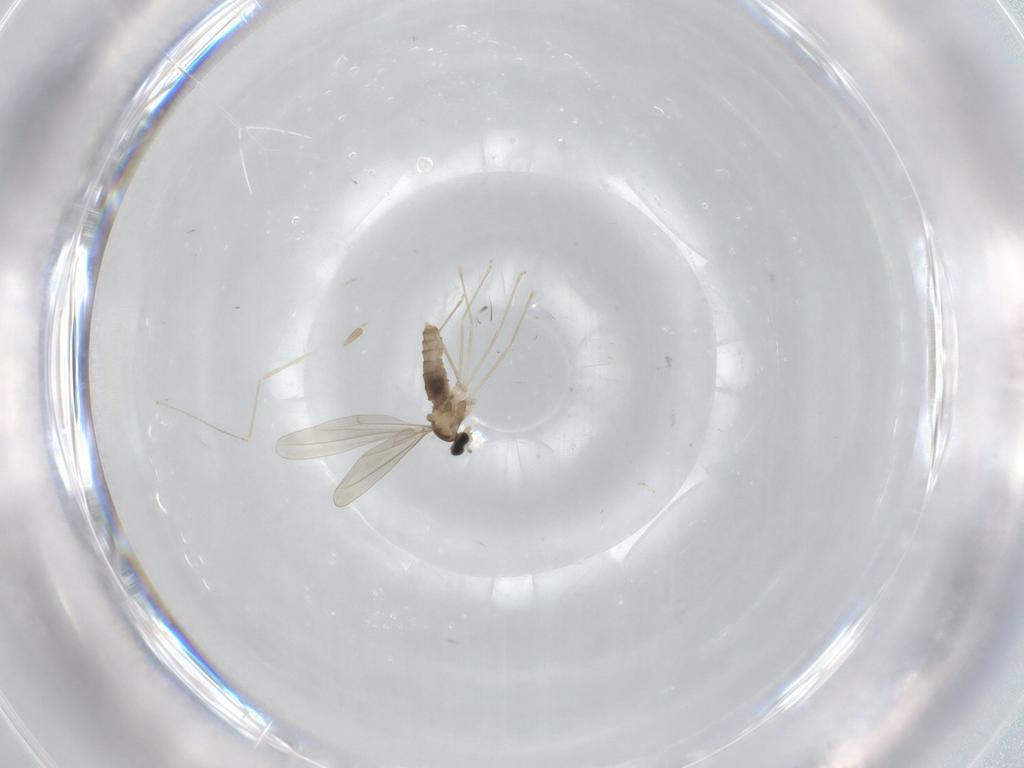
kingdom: Animalia
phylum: Arthropoda
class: Insecta
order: Diptera
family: Cecidomyiidae
